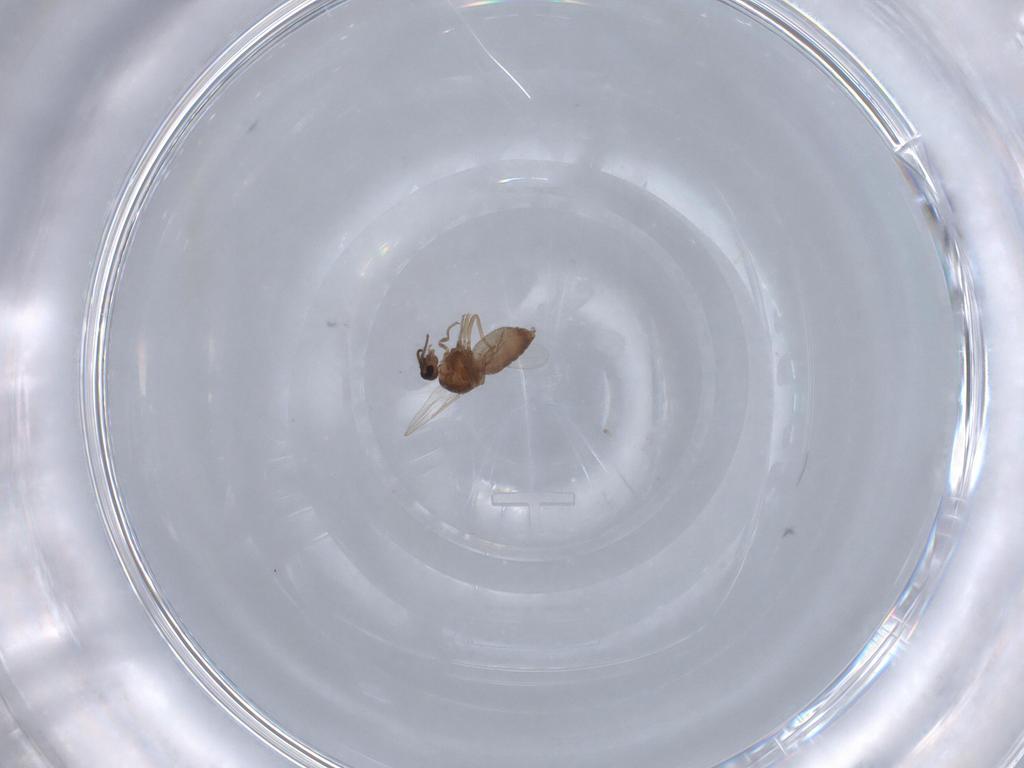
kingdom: Animalia
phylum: Arthropoda
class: Insecta
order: Diptera
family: Ceratopogonidae
